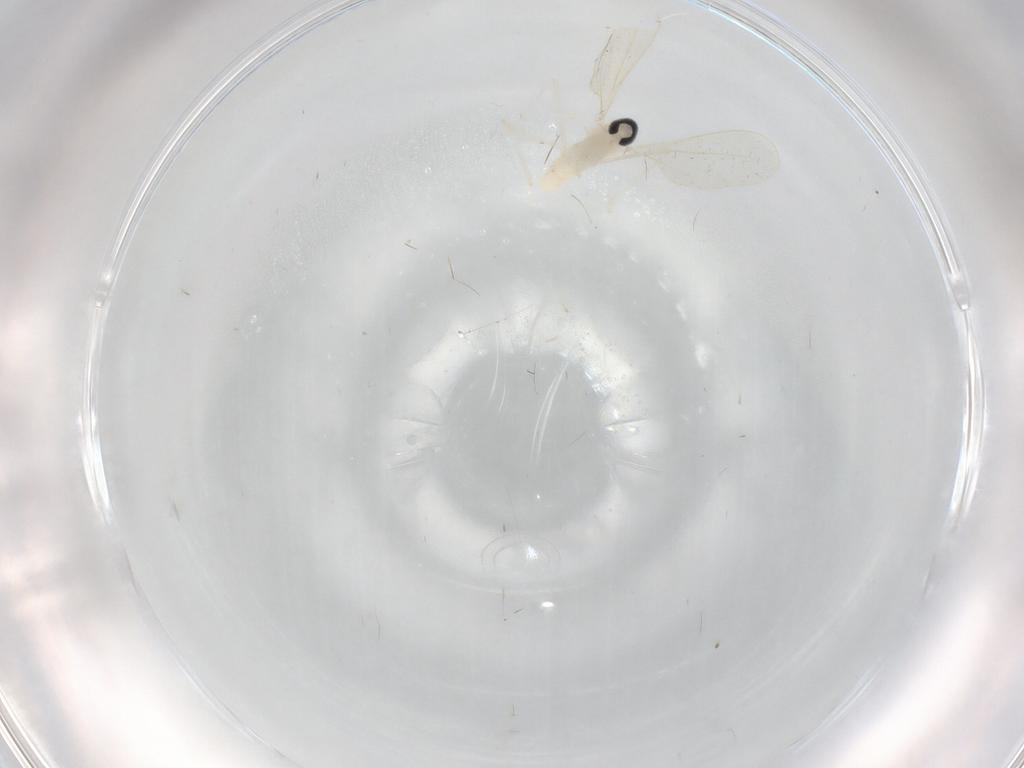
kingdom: Animalia
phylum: Arthropoda
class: Insecta
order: Diptera
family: Cecidomyiidae
